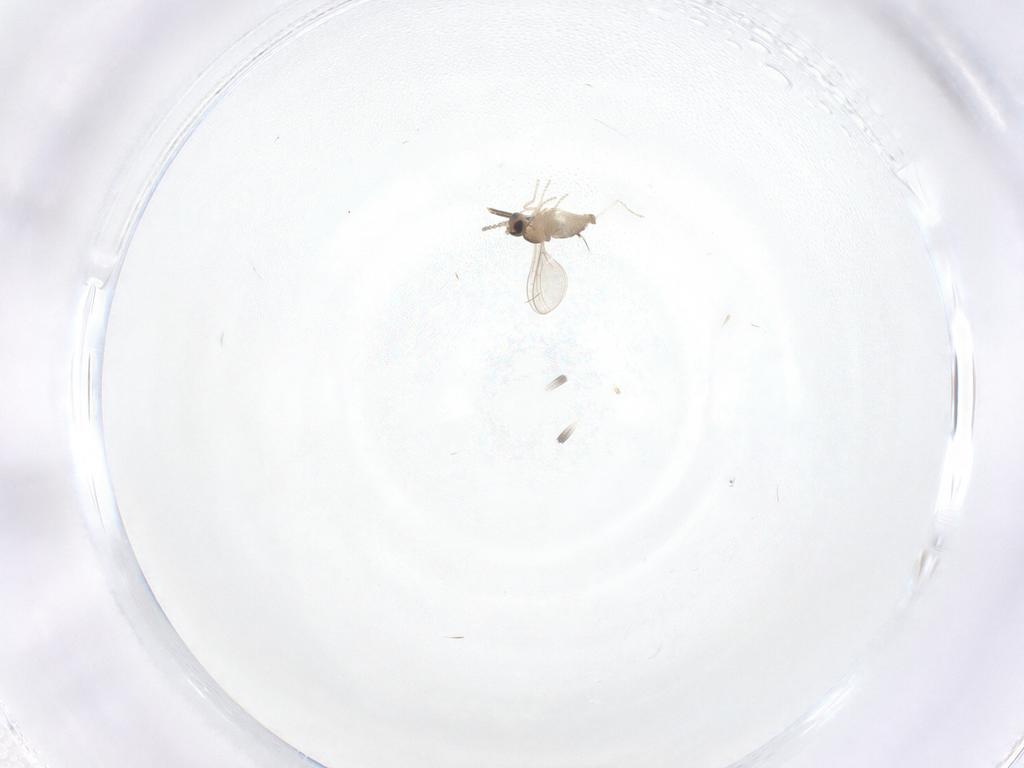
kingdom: Animalia
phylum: Arthropoda
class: Insecta
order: Diptera
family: Cecidomyiidae
